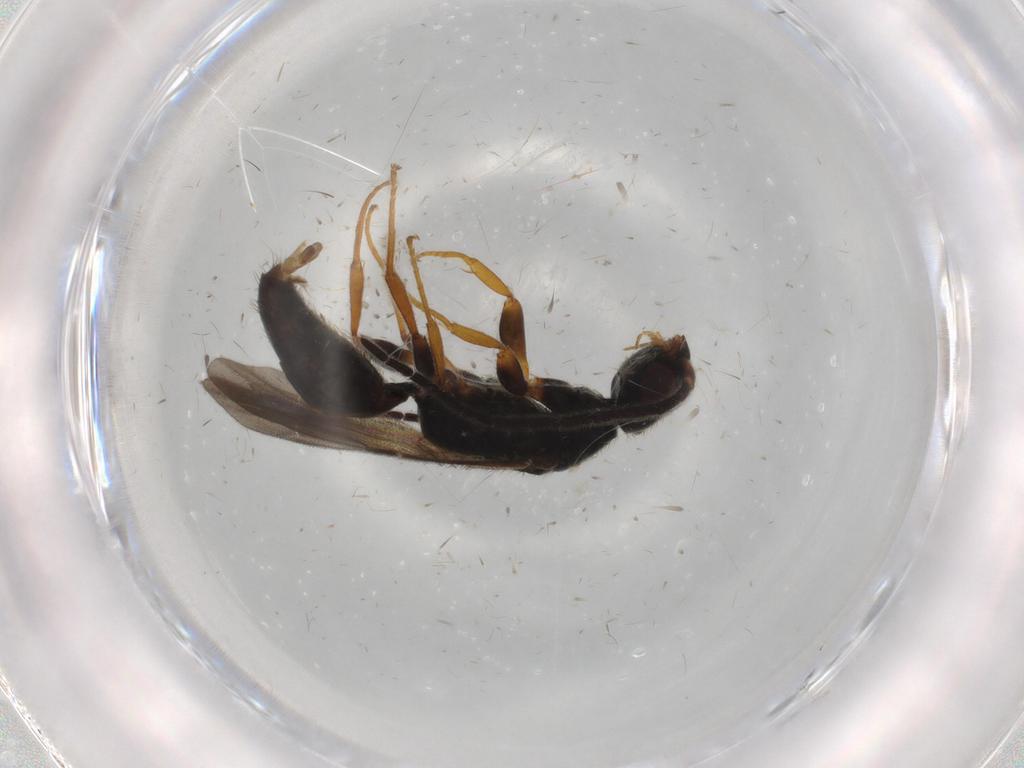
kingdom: Animalia
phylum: Arthropoda
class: Insecta
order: Hymenoptera
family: Bethylidae
